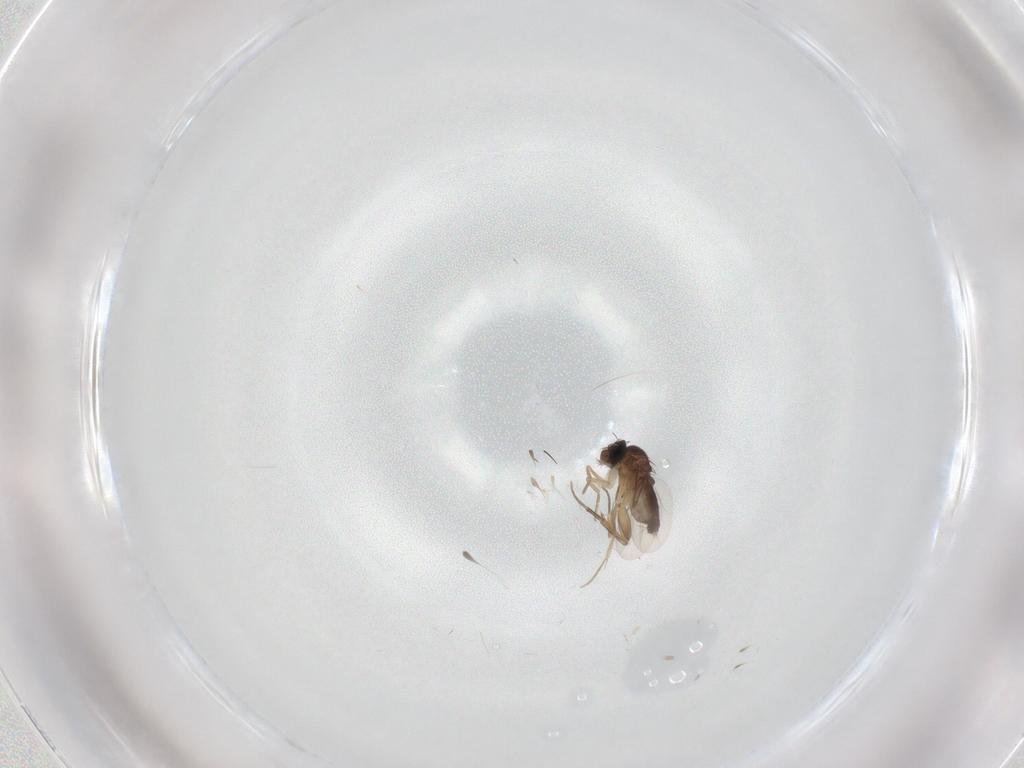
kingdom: Animalia
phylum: Arthropoda
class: Insecta
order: Diptera
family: Phoridae
